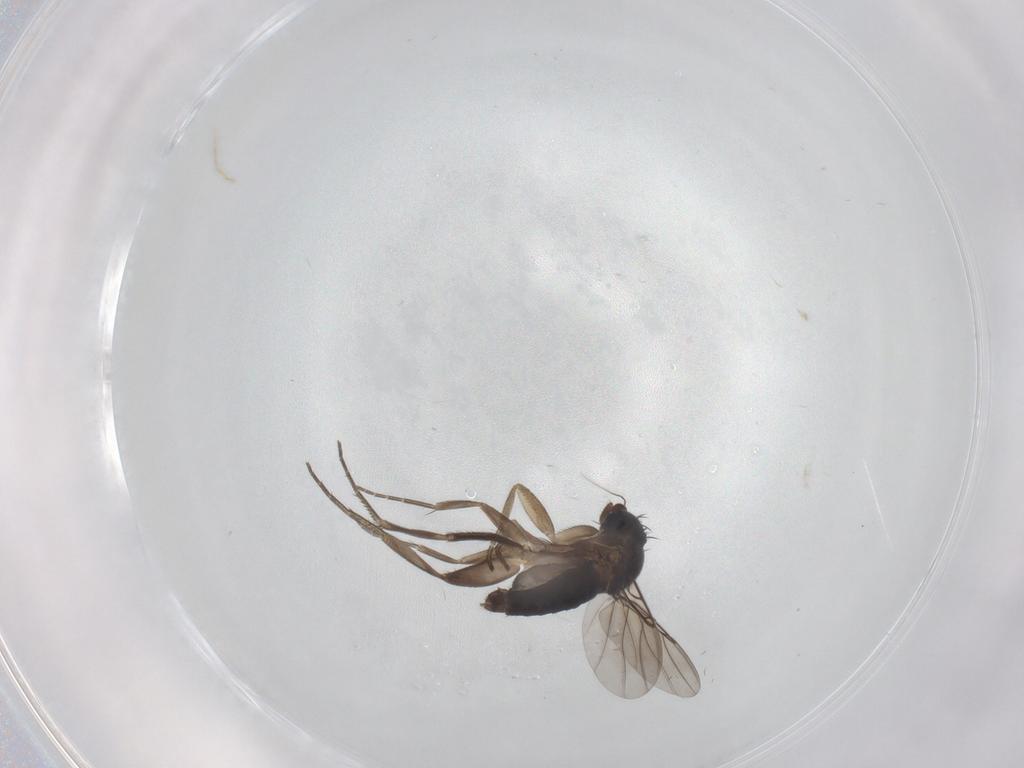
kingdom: Animalia
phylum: Arthropoda
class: Insecta
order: Diptera
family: Phoridae
